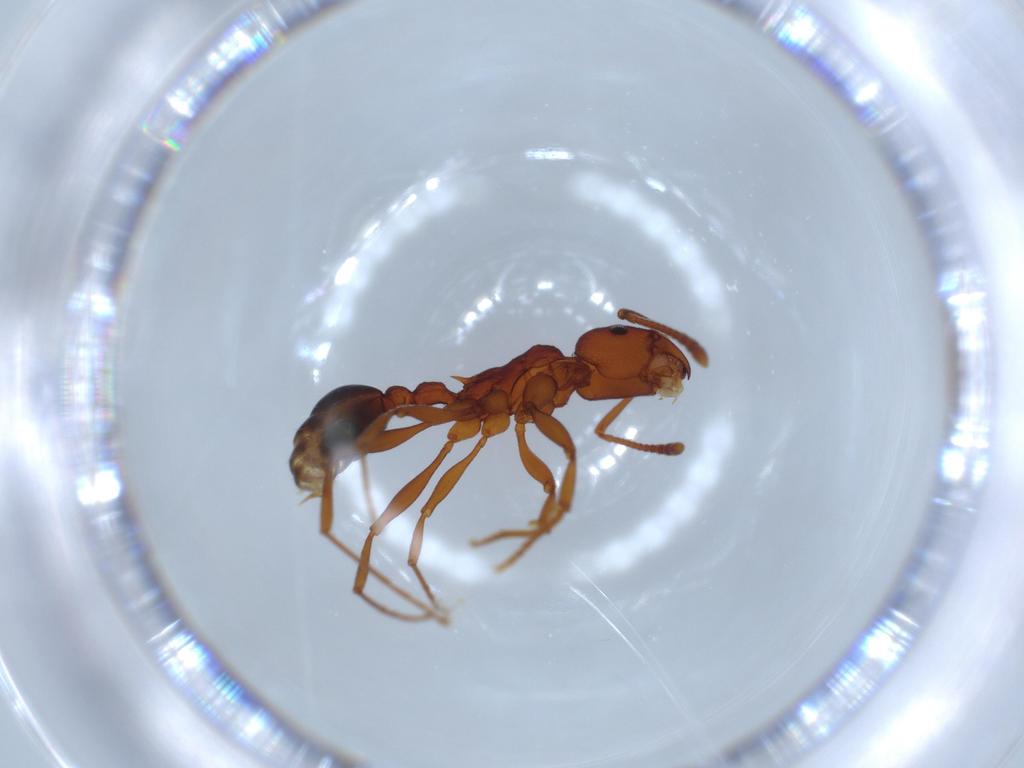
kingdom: Animalia
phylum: Arthropoda
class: Insecta
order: Hymenoptera
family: Formicidae
